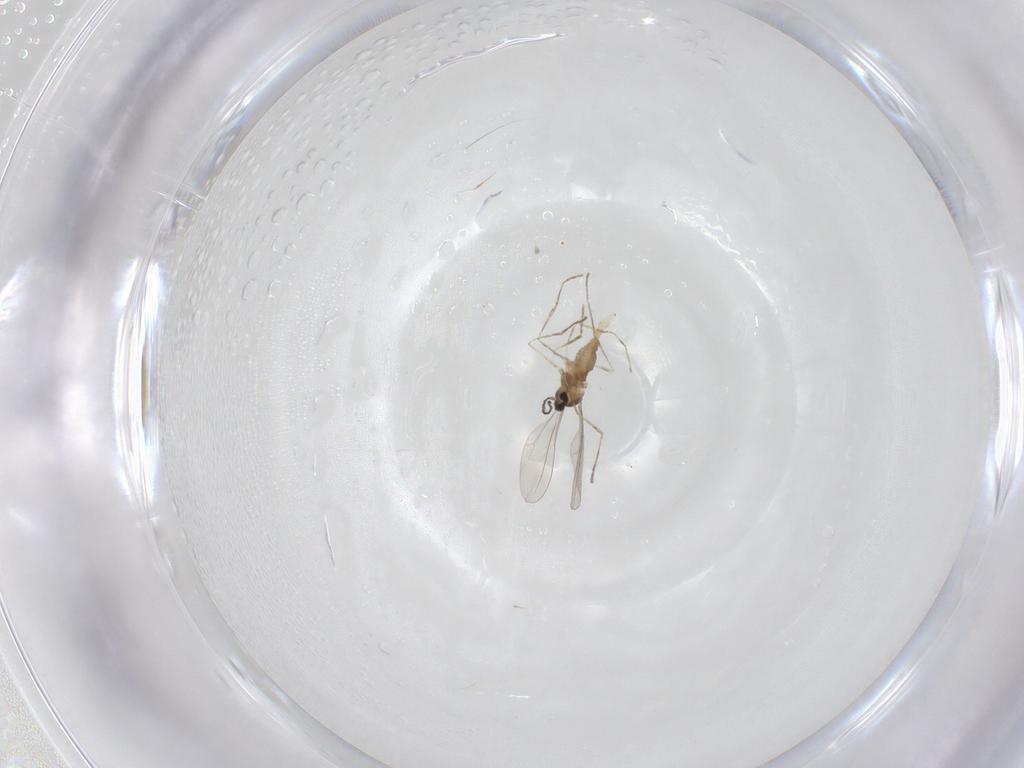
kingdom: Animalia
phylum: Arthropoda
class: Insecta
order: Diptera
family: Cecidomyiidae
